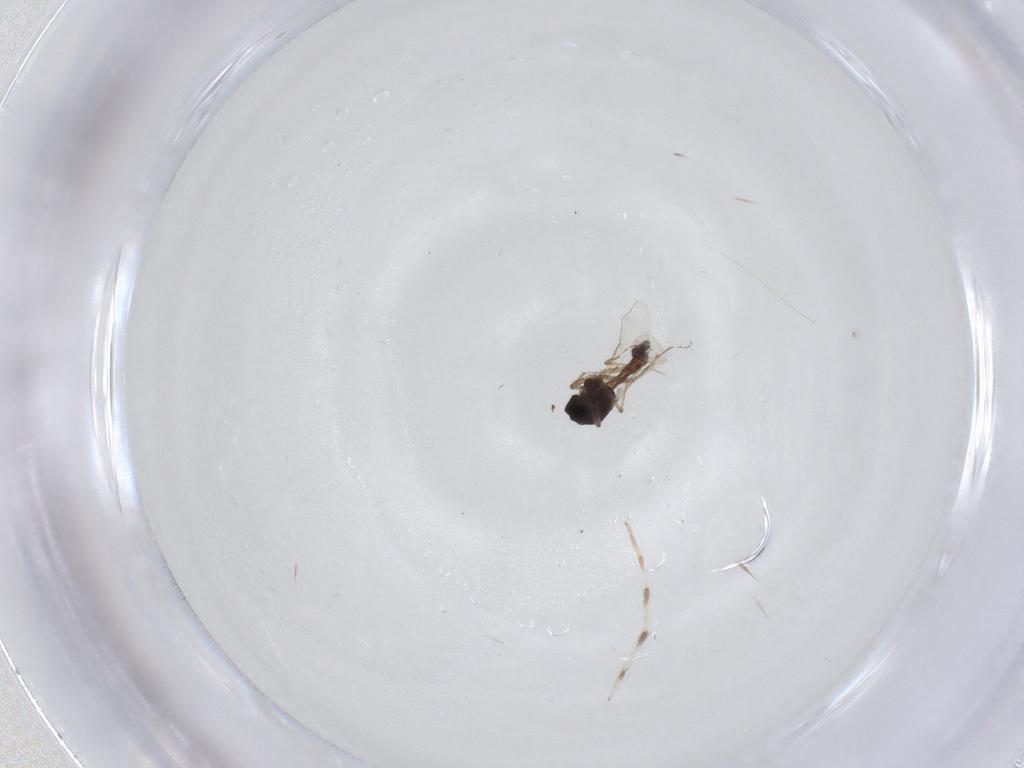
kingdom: Animalia
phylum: Arthropoda
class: Insecta
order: Diptera
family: Ceratopogonidae
